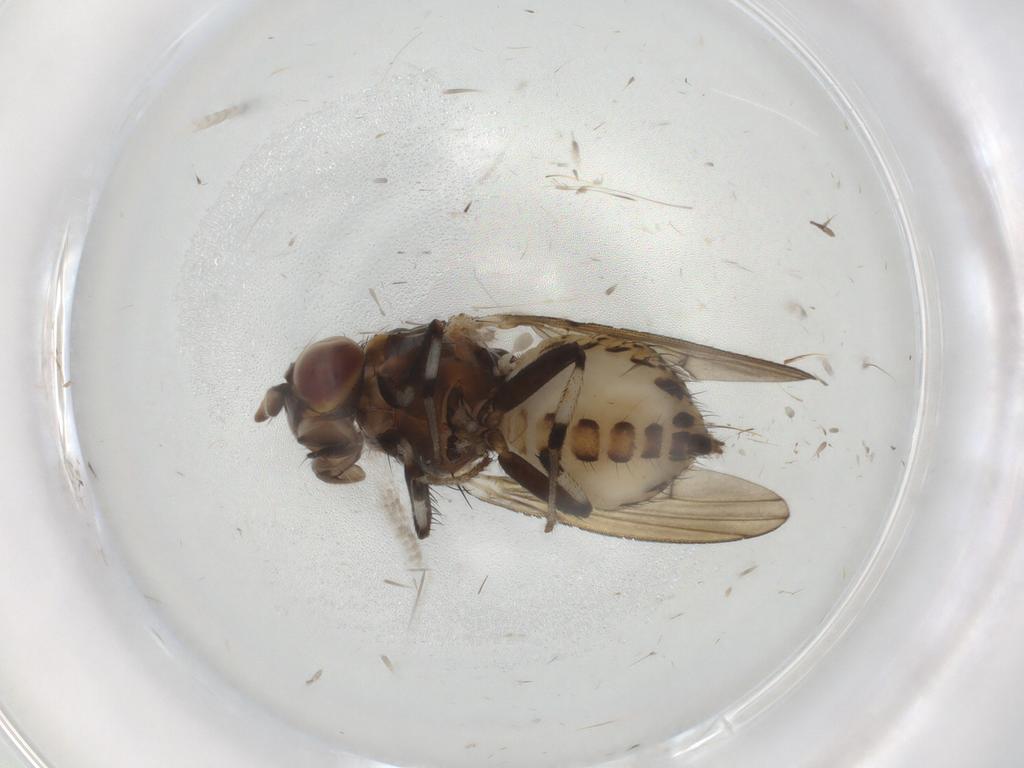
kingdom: Animalia
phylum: Arthropoda
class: Insecta
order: Diptera
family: Lauxaniidae
